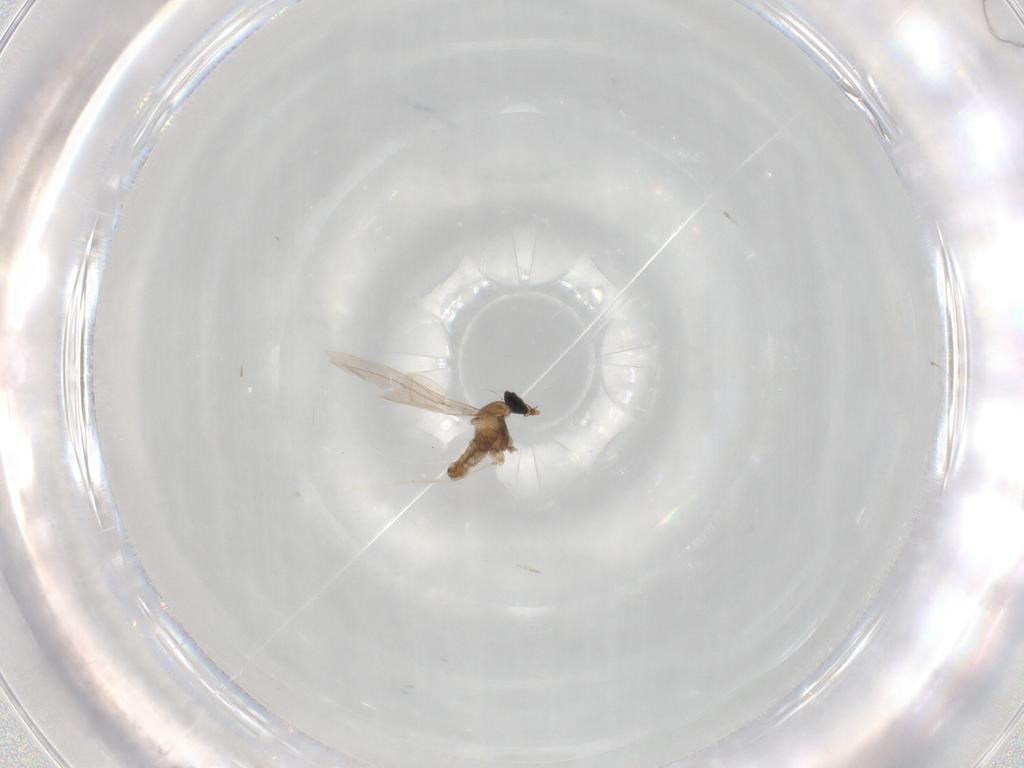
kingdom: Animalia
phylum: Arthropoda
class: Insecta
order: Diptera
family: Cecidomyiidae
